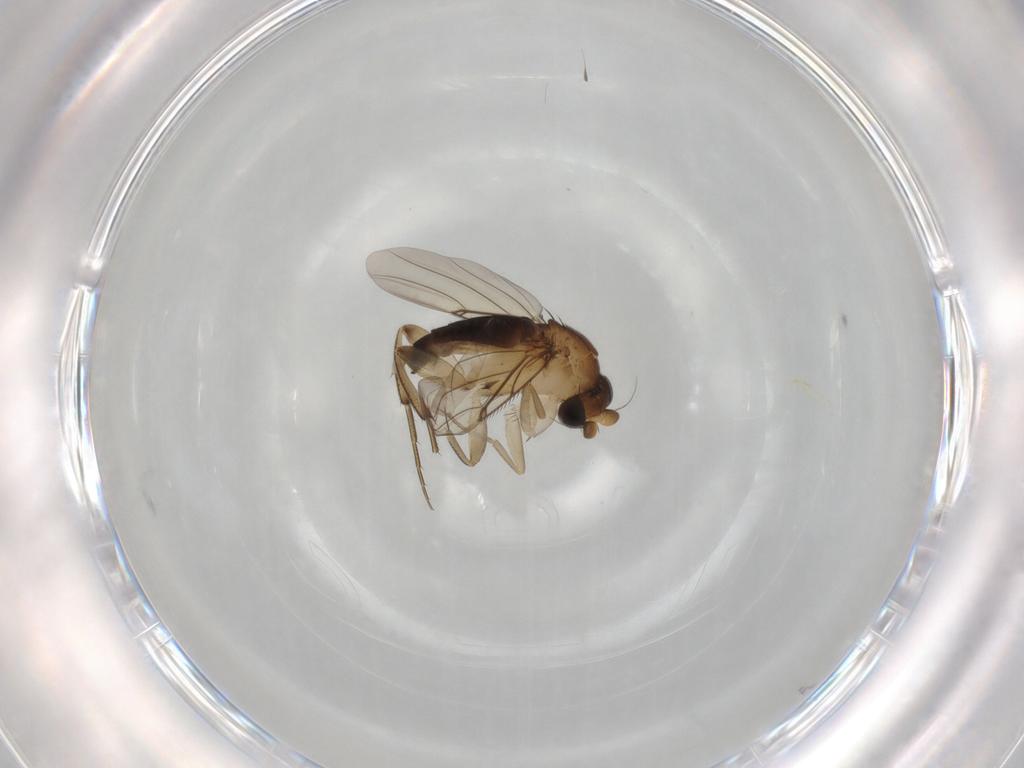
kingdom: Animalia
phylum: Arthropoda
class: Insecta
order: Diptera
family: Phoridae
